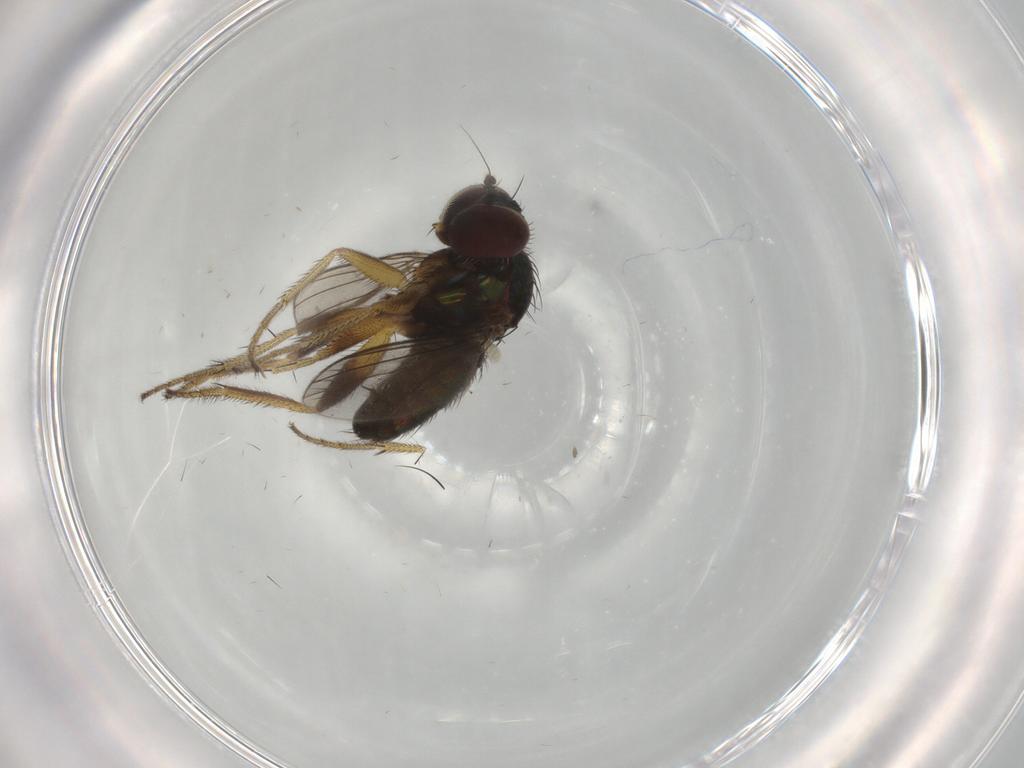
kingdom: Animalia
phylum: Arthropoda
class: Insecta
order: Diptera
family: Dolichopodidae
